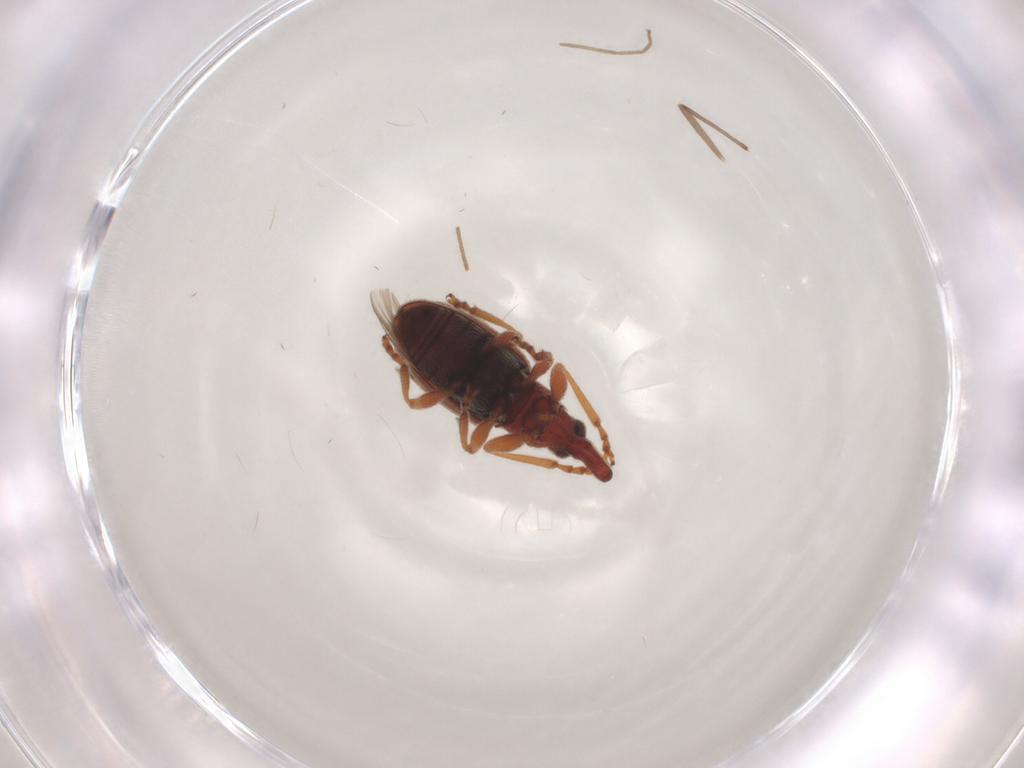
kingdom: Animalia
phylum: Arthropoda
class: Insecta
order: Coleoptera
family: Brentidae
